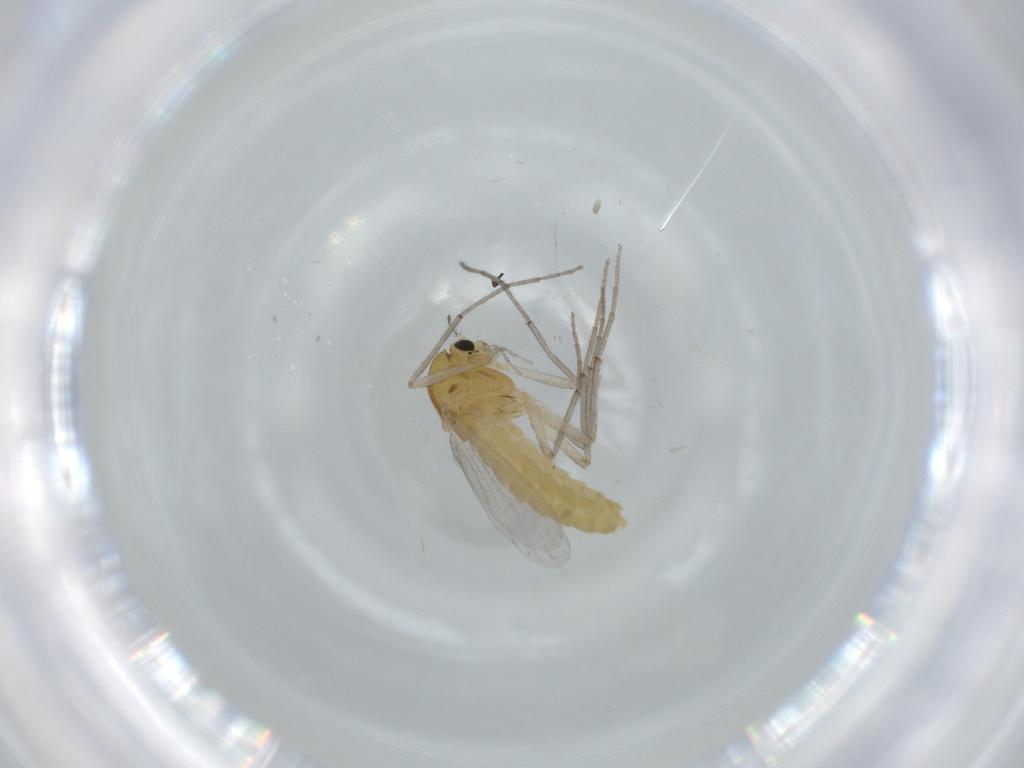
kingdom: Animalia
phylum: Arthropoda
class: Insecta
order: Diptera
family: Chironomidae
